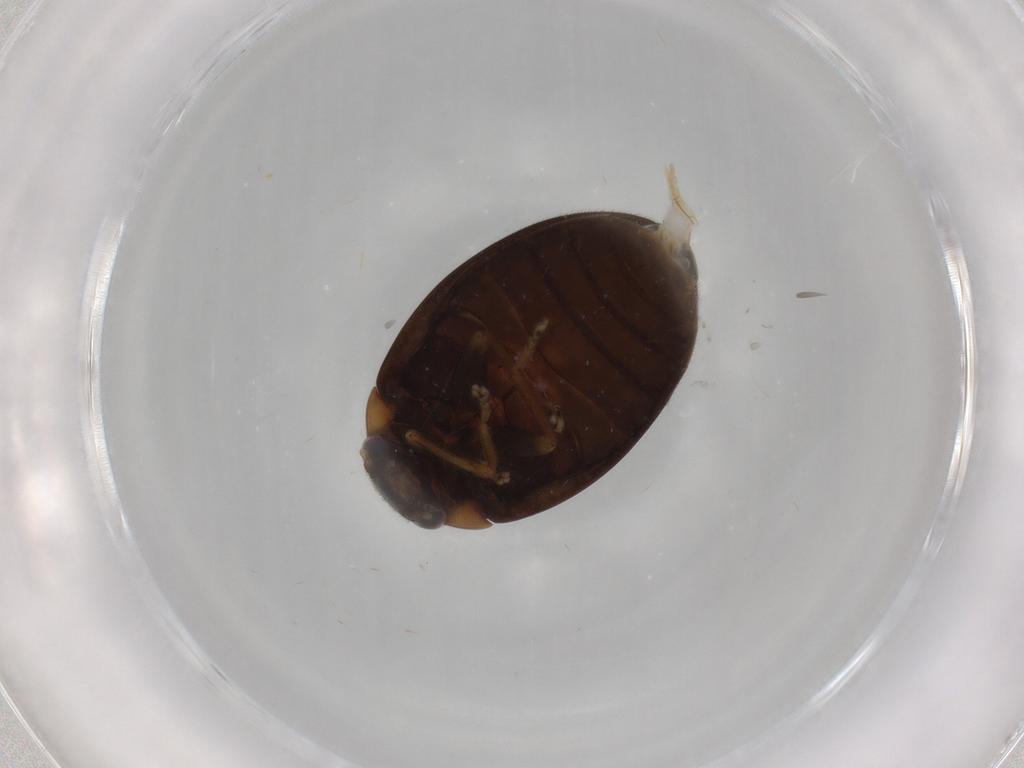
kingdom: Animalia
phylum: Arthropoda
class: Insecta
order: Coleoptera
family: Scirtidae
